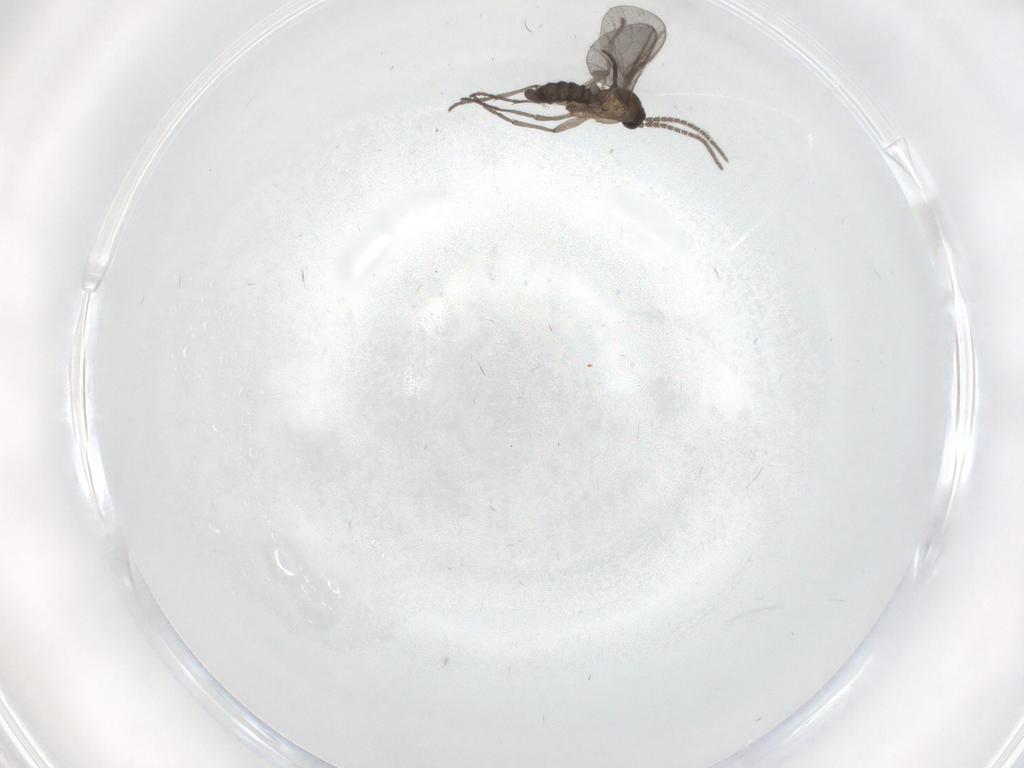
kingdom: Animalia
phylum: Arthropoda
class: Insecta
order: Diptera
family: Sciaridae
